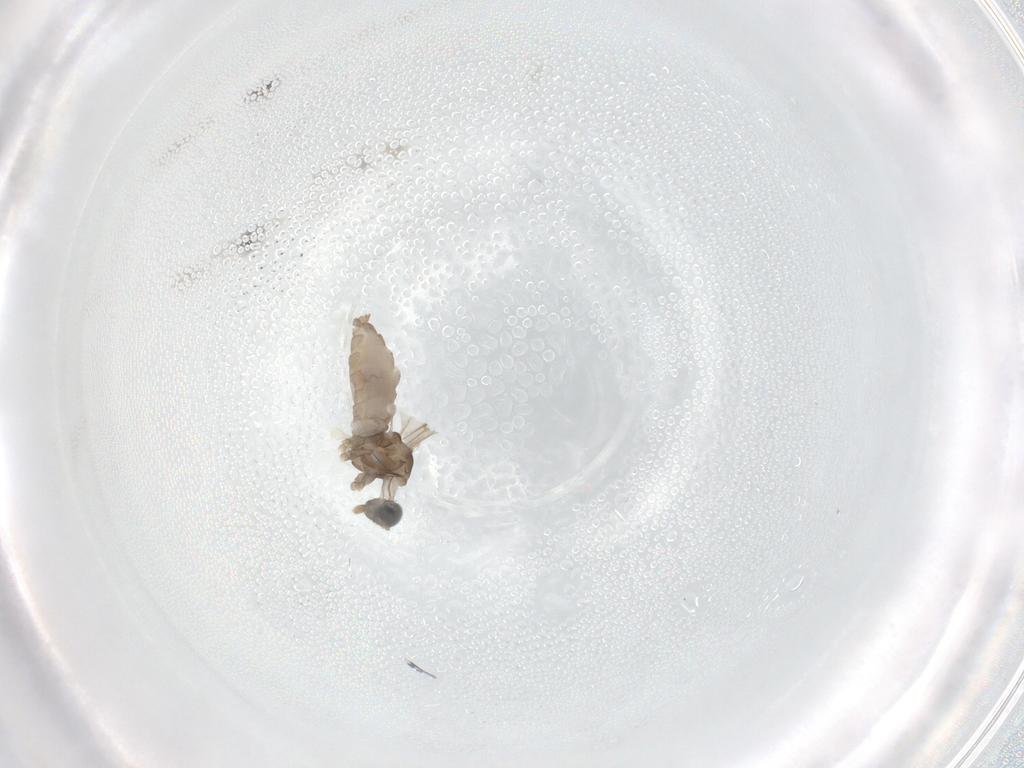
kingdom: Animalia
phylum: Arthropoda
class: Insecta
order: Diptera
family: Cecidomyiidae
